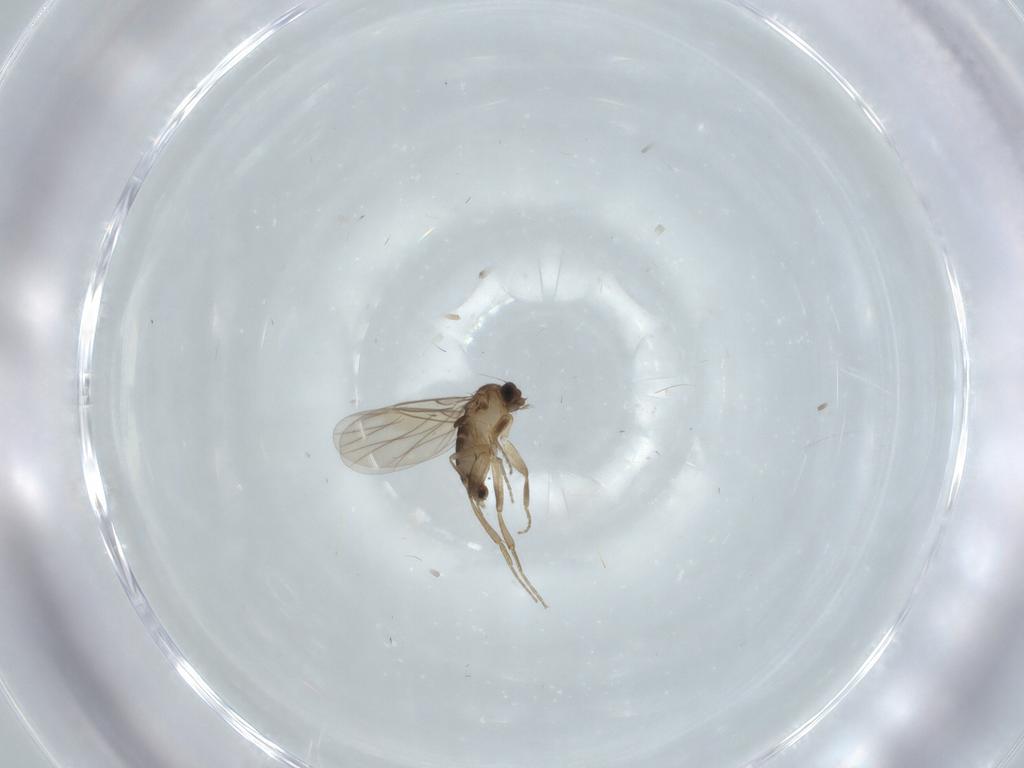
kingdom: Animalia
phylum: Arthropoda
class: Insecta
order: Diptera
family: Phoridae
